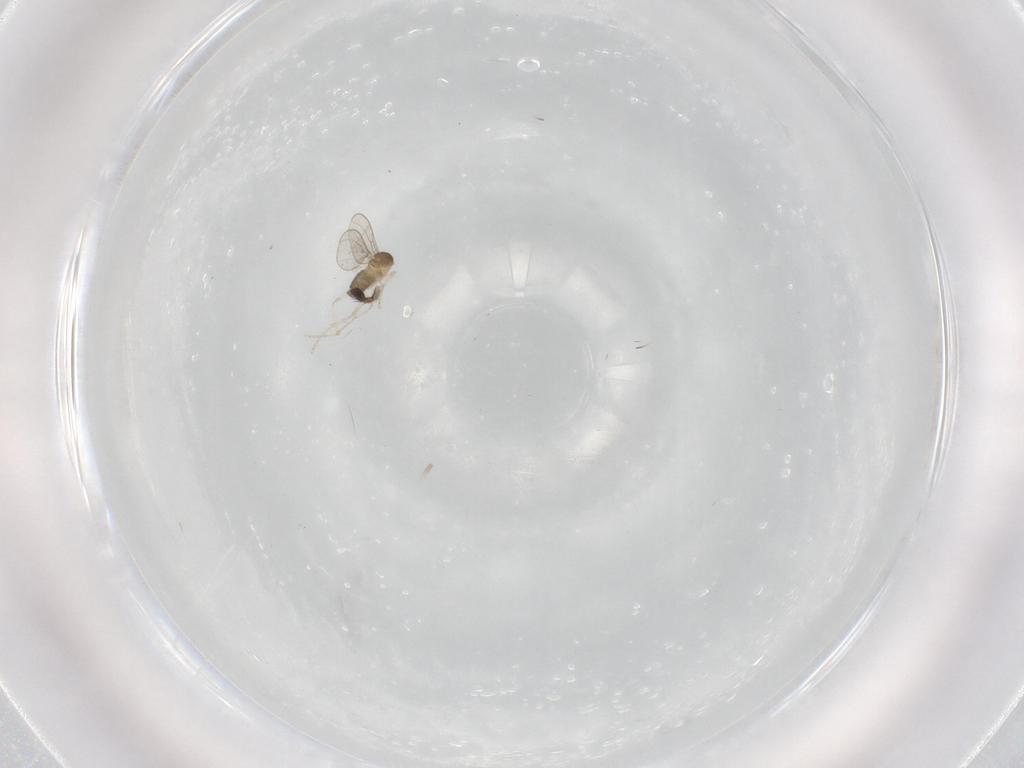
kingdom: Animalia
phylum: Arthropoda
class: Insecta
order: Diptera
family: Cecidomyiidae
